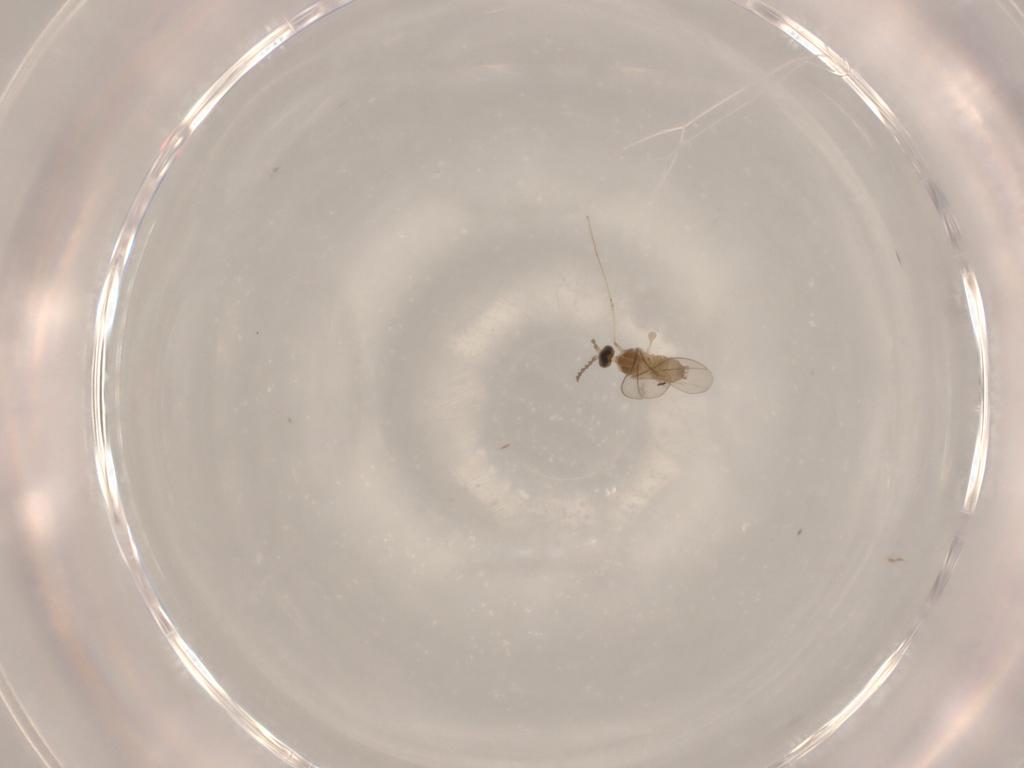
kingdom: Animalia
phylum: Arthropoda
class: Insecta
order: Diptera
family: Cecidomyiidae
